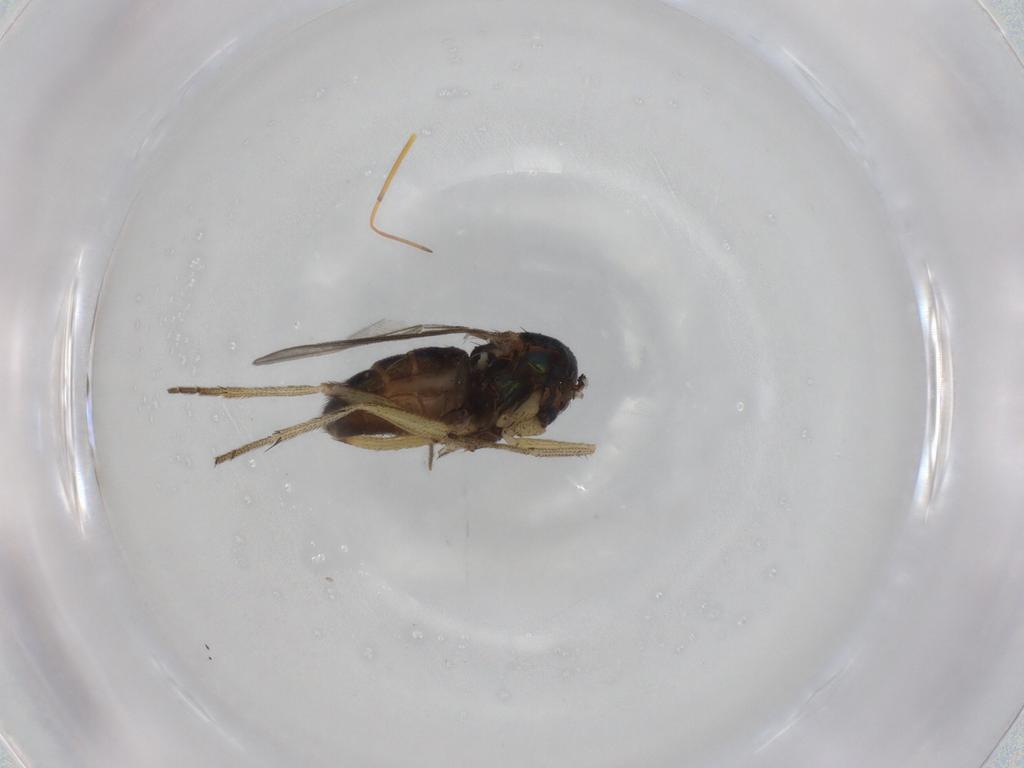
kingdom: Animalia
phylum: Arthropoda
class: Insecta
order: Diptera
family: Dolichopodidae
